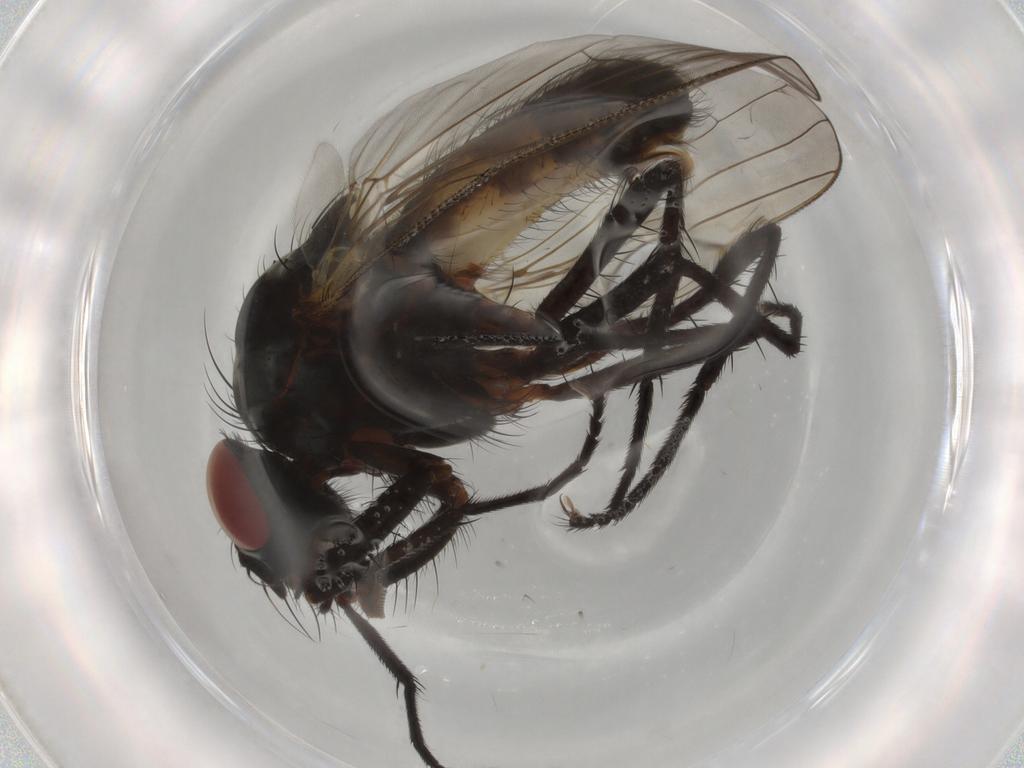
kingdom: Animalia
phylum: Arthropoda
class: Insecta
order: Diptera
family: Anthomyiidae
